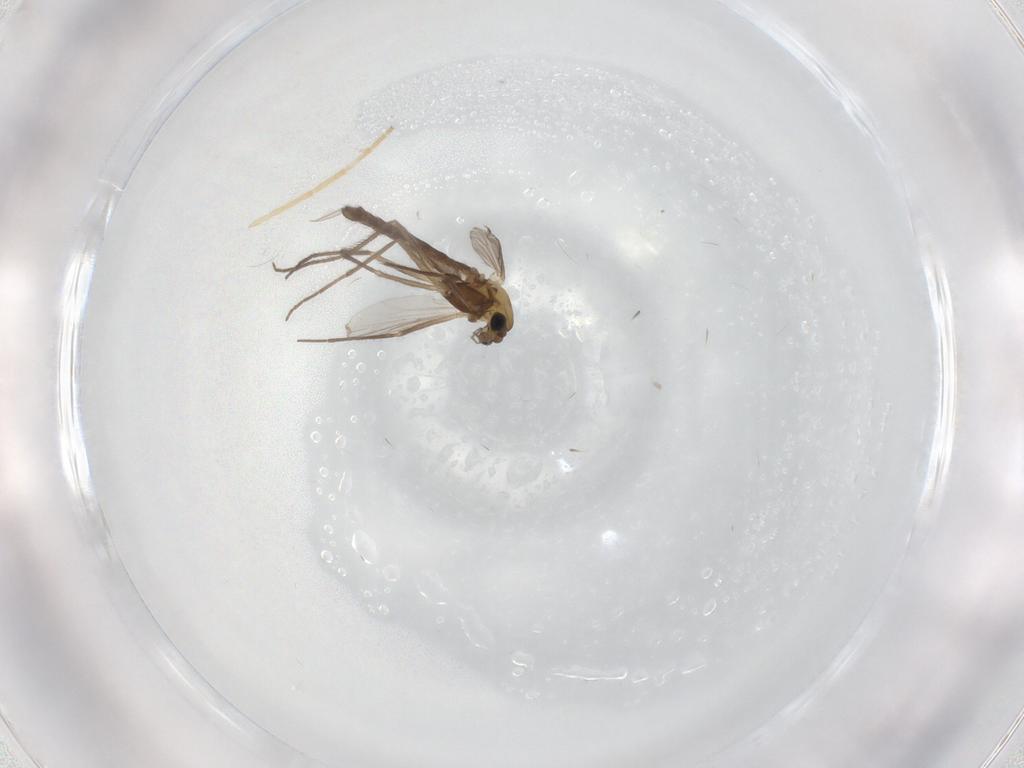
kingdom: Animalia
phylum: Arthropoda
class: Insecta
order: Diptera
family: Chironomidae
